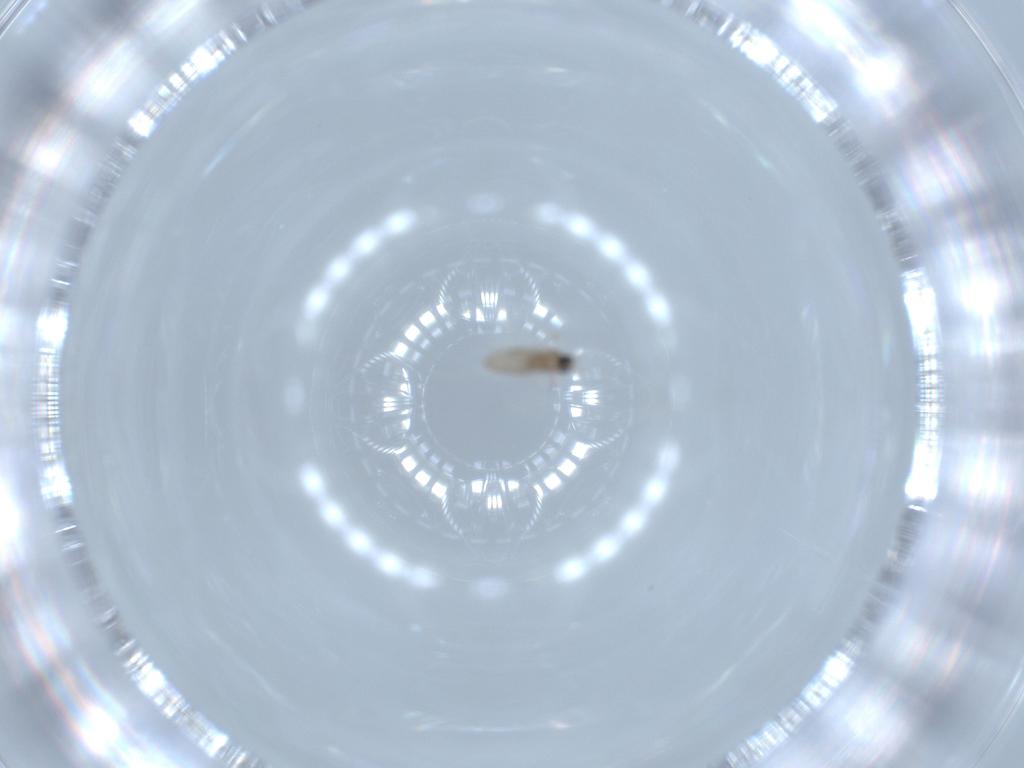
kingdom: Animalia
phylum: Arthropoda
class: Insecta
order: Diptera
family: Cecidomyiidae
